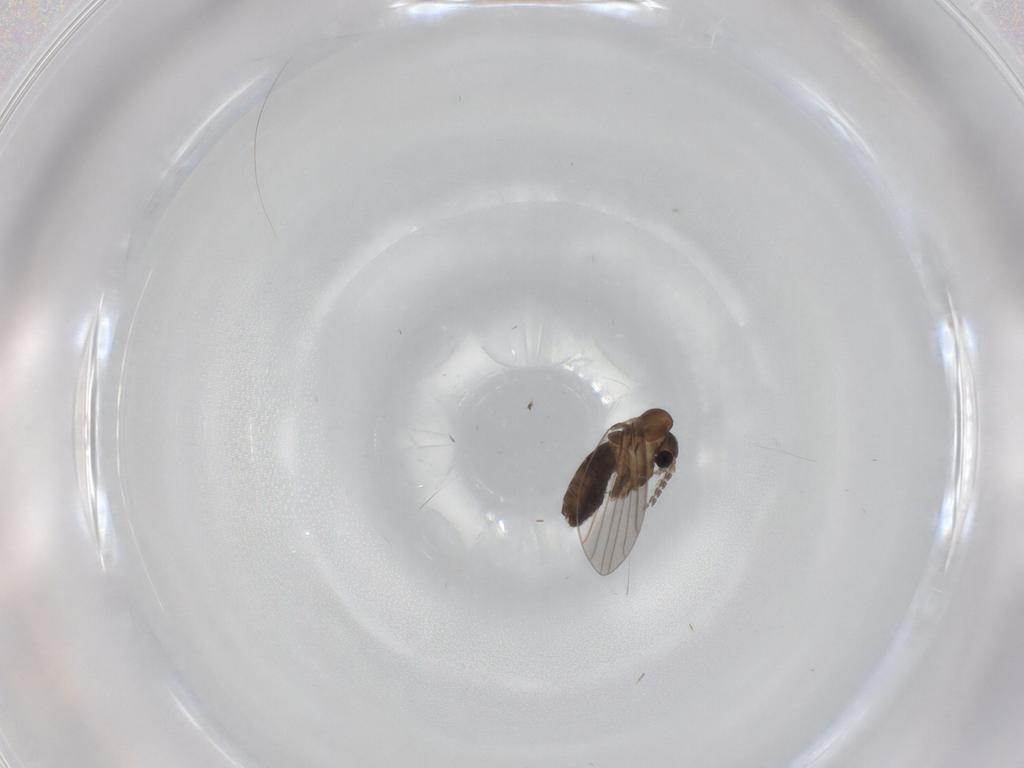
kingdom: Animalia
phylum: Arthropoda
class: Insecta
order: Diptera
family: Psychodidae
